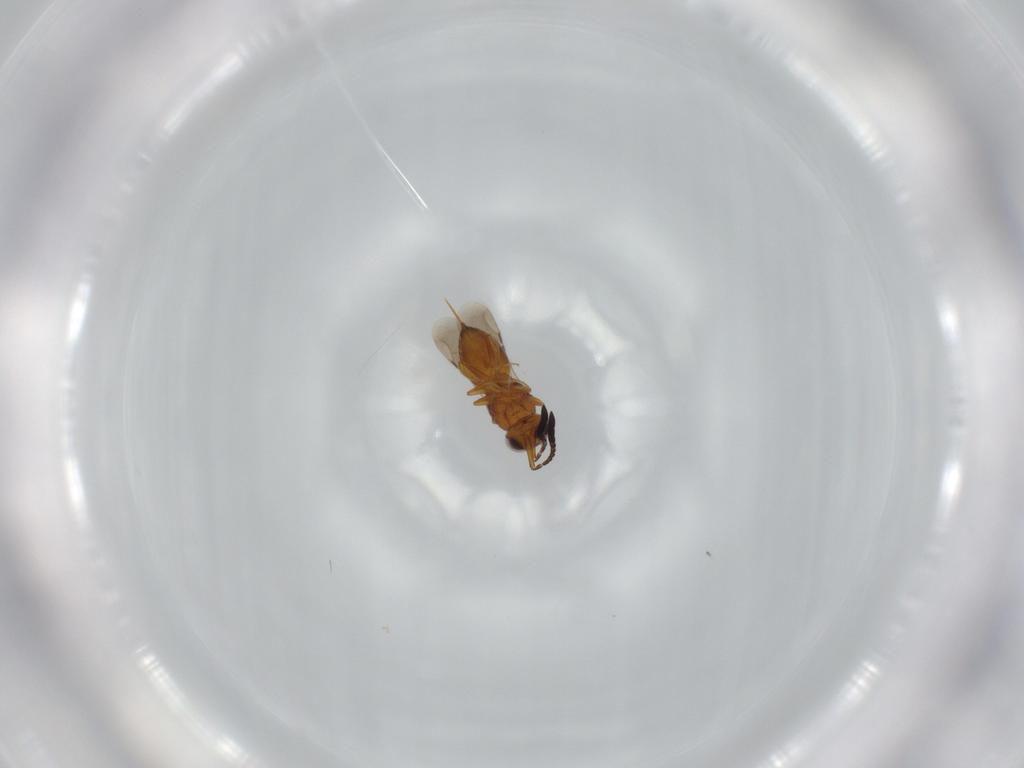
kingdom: Animalia
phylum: Arthropoda
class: Insecta
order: Hymenoptera
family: Ceraphronidae
